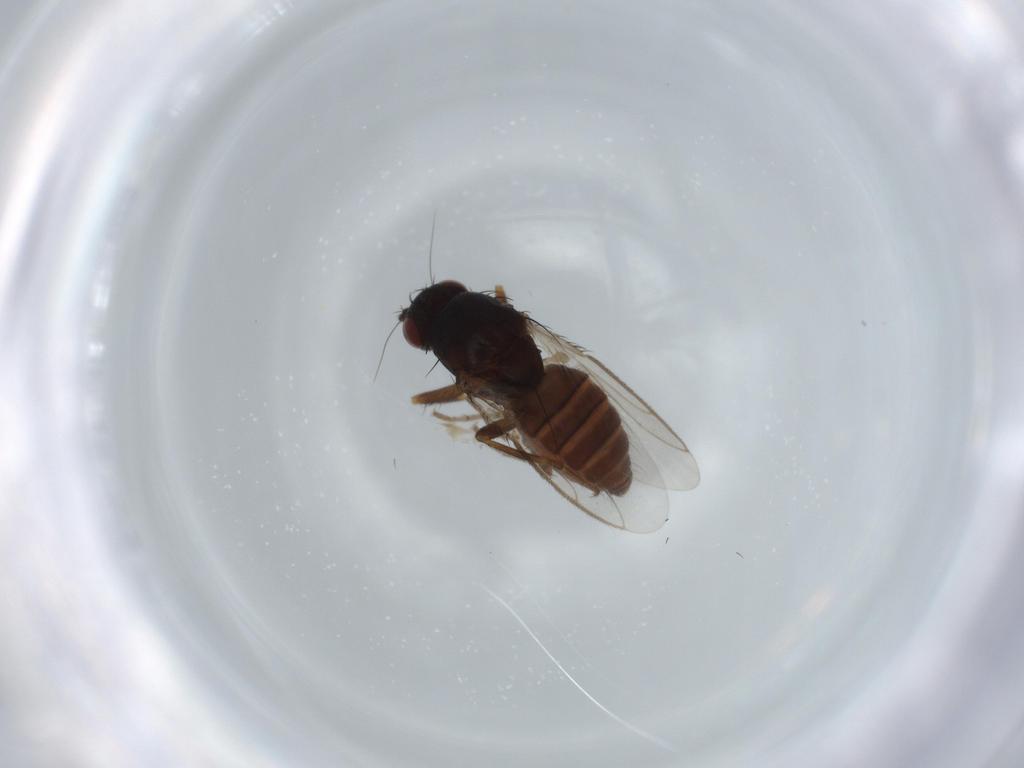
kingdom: Animalia
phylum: Arthropoda
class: Insecta
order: Diptera
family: Sphaeroceridae
